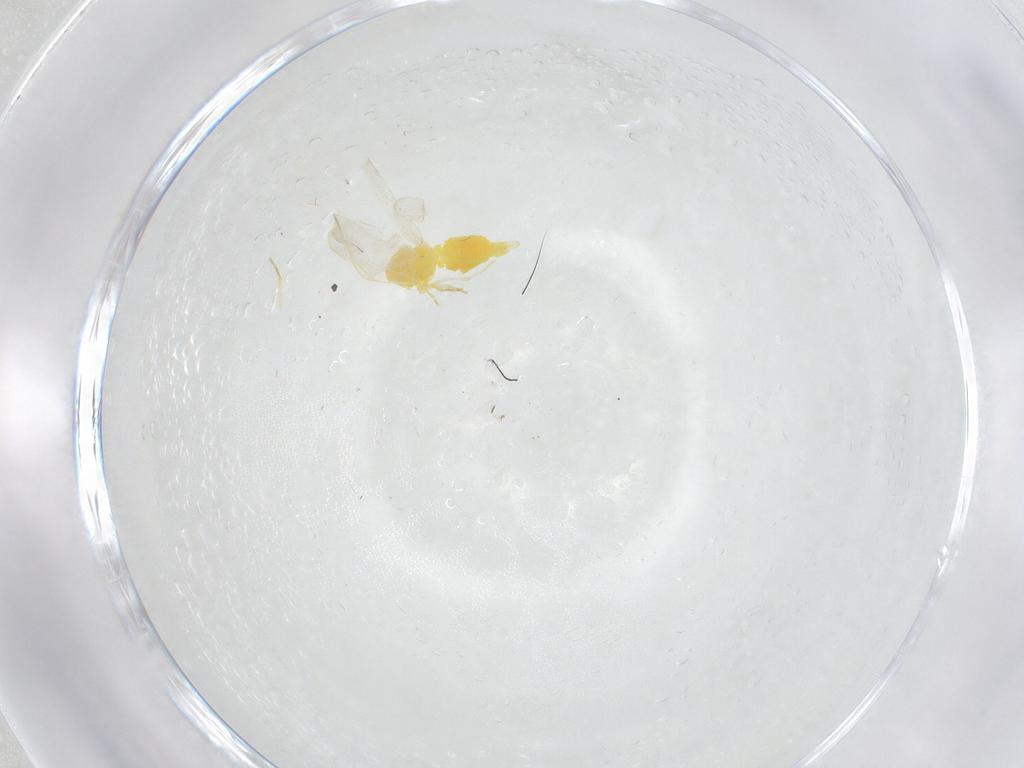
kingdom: Animalia
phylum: Arthropoda
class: Insecta
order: Hemiptera
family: Aleyrodidae
